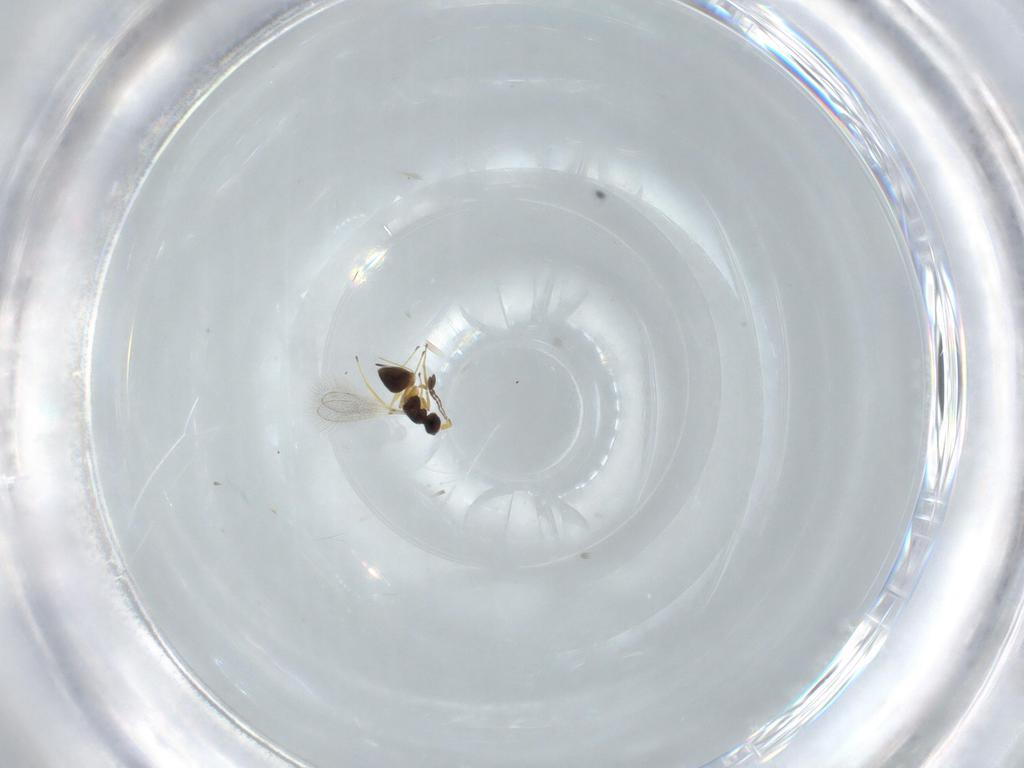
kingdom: Animalia
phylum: Arthropoda
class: Insecta
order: Hymenoptera
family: Mymaridae
